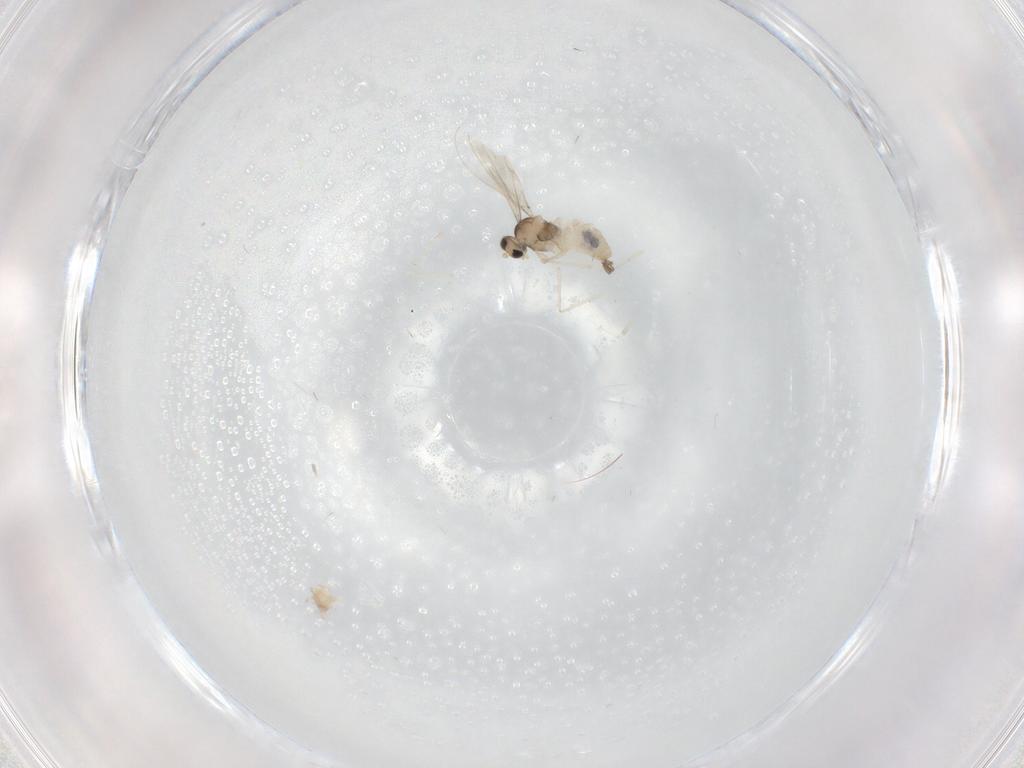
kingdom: Animalia
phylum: Arthropoda
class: Insecta
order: Diptera
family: Cecidomyiidae
